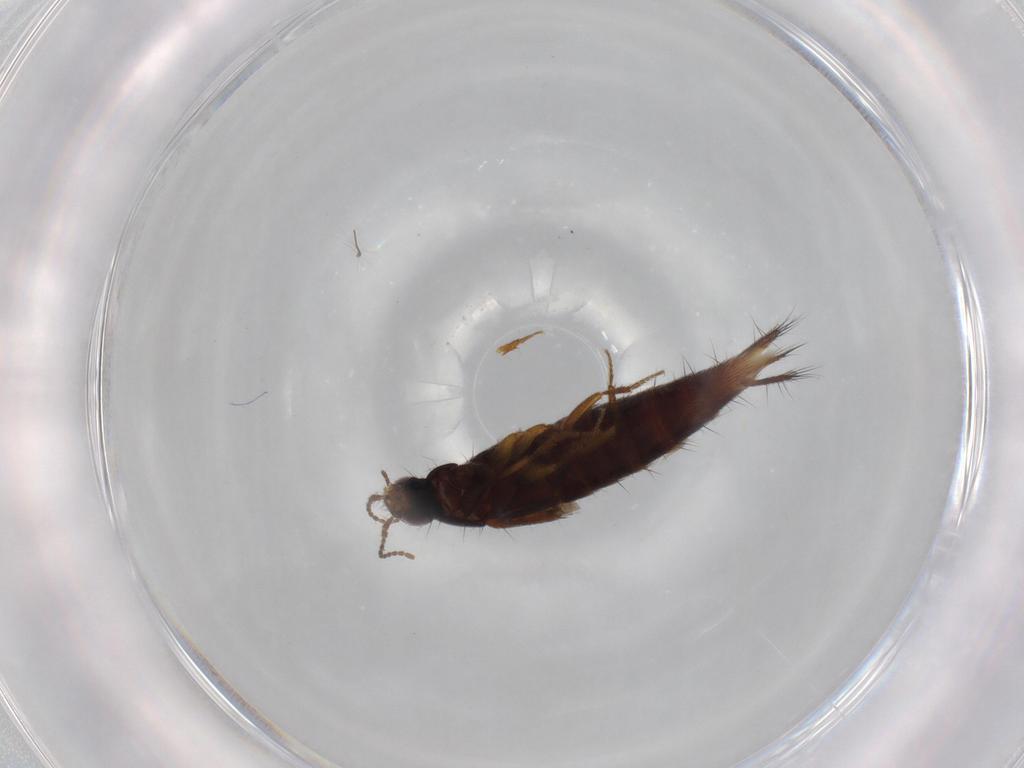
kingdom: Animalia
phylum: Arthropoda
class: Insecta
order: Coleoptera
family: Staphylinidae
